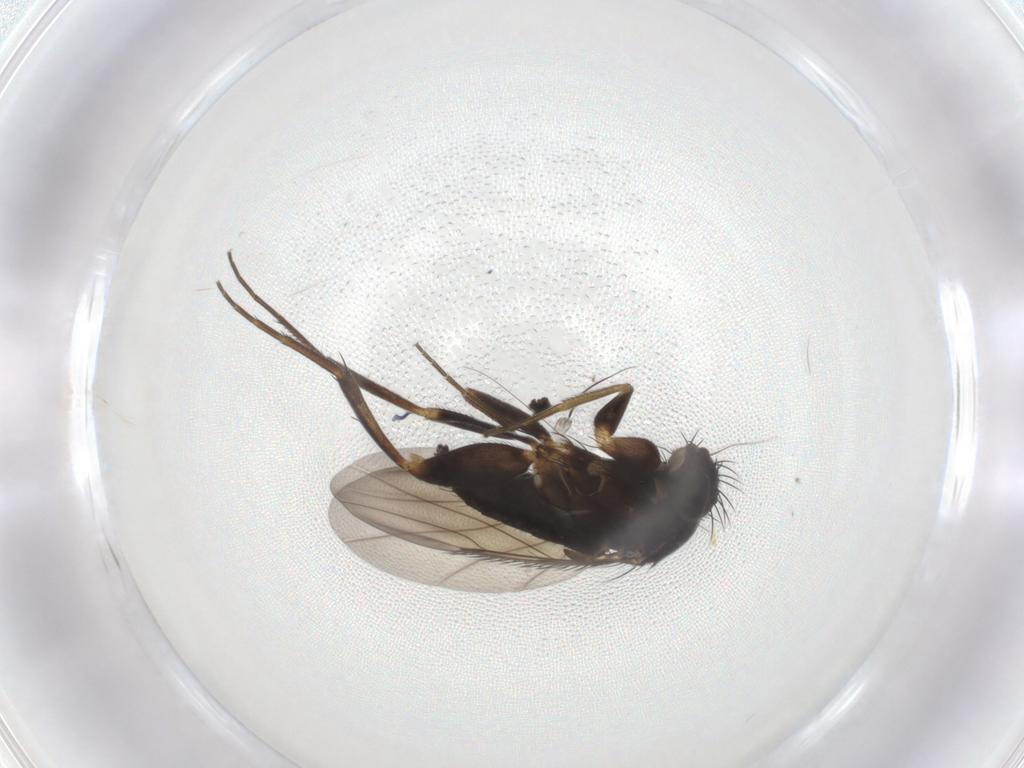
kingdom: Animalia
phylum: Arthropoda
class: Insecta
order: Diptera
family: Phoridae
